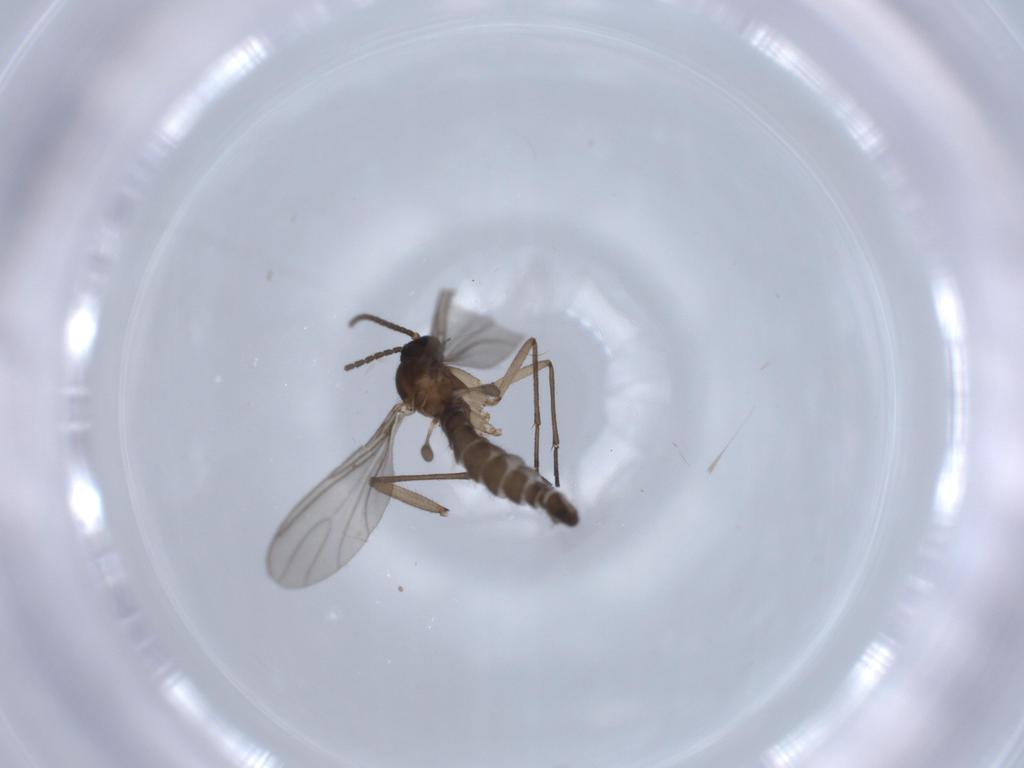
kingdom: Animalia
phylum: Arthropoda
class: Insecta
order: Diptera
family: Sciaridae
